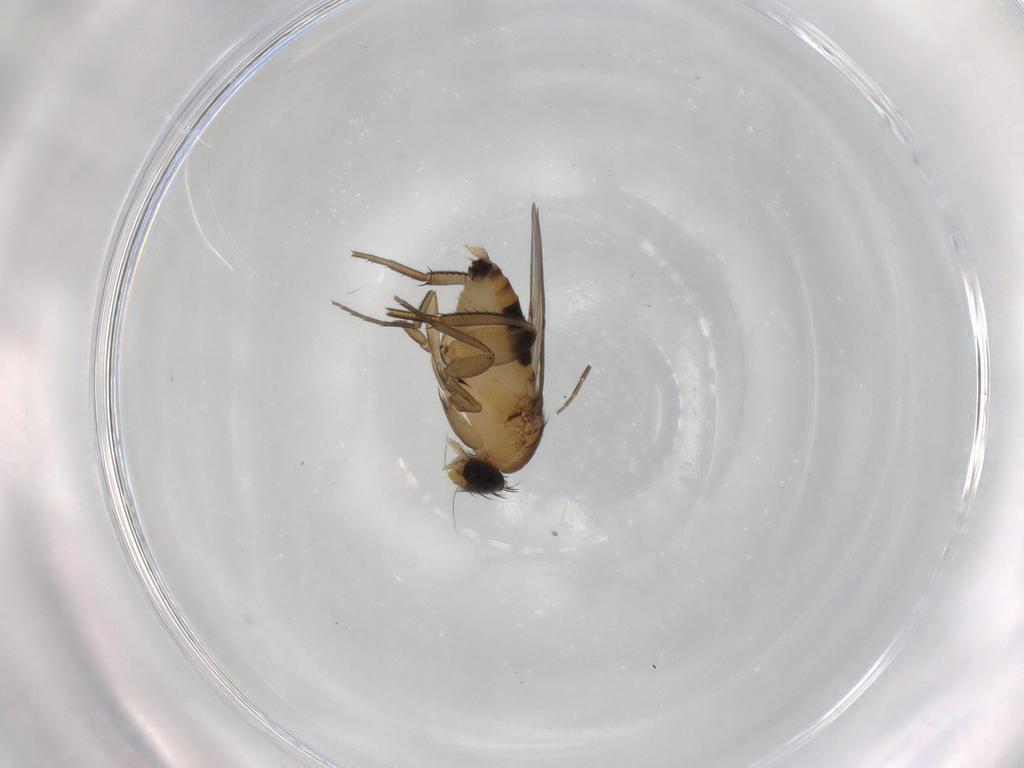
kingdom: Animalia
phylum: Arthropoda
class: Insecta
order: Diptera
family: Phoridae
